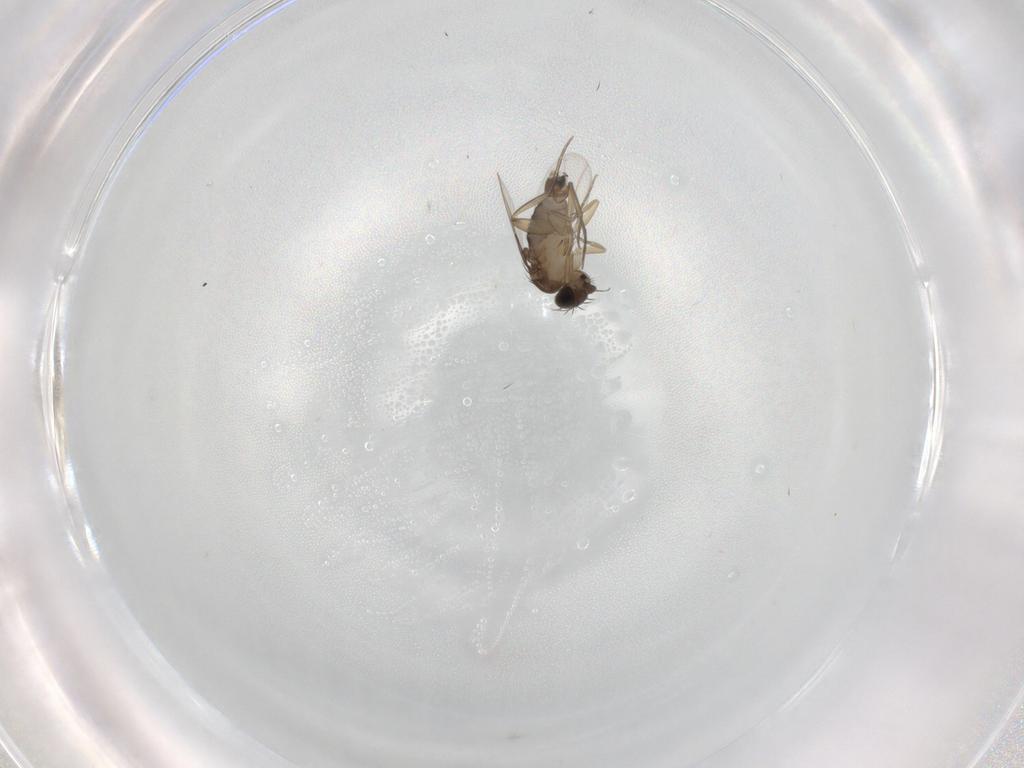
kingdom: Animalia
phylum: Arthropoda
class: Insecta
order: Diptera
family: Phoridae
